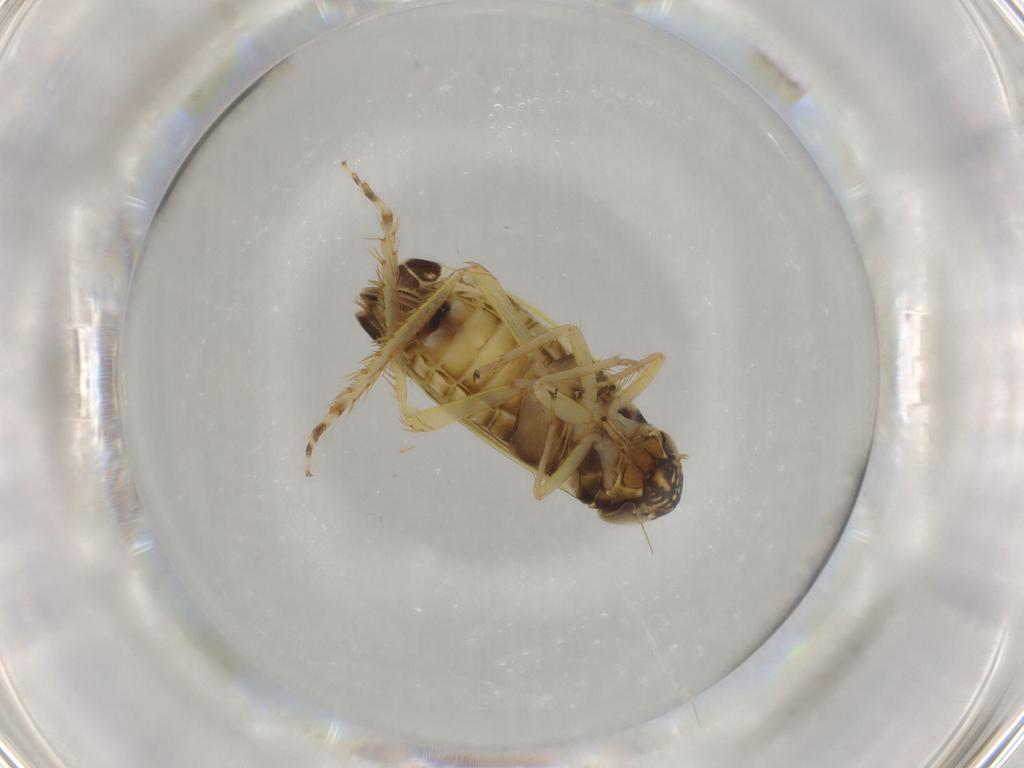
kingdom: Animalia
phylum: Arthropoda
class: Insecta
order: Hemiptera
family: Cicadellidae
